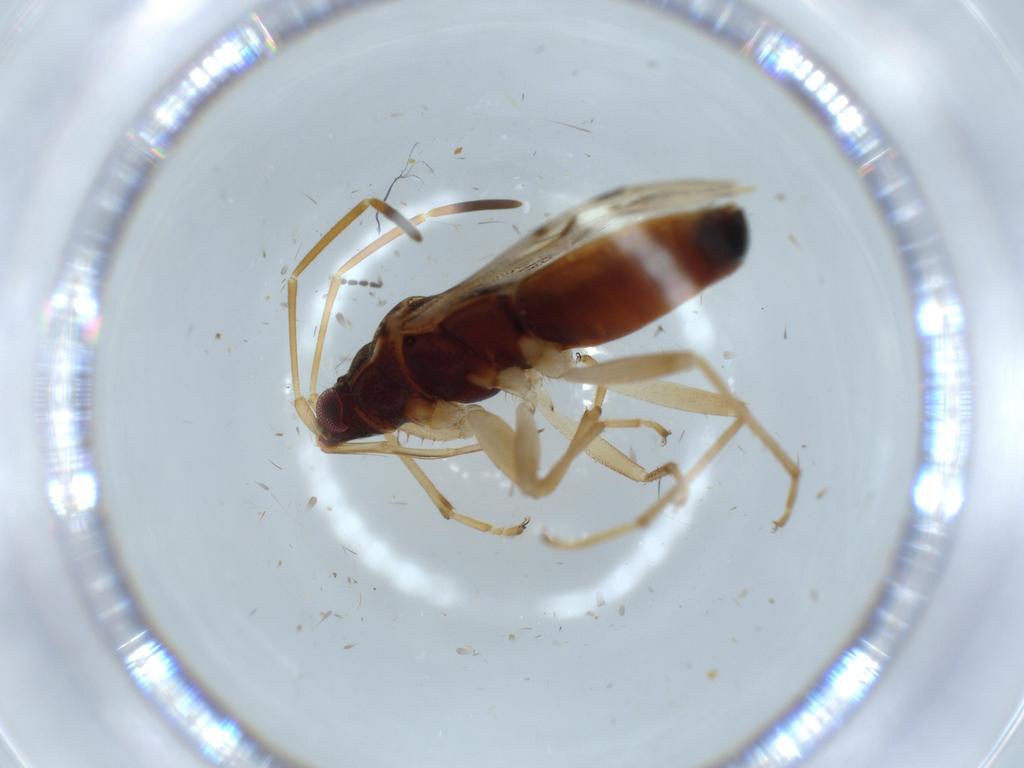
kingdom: Animalia
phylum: Arthropoda
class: Insecta
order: Hemiptera
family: Rhyparochromidae
